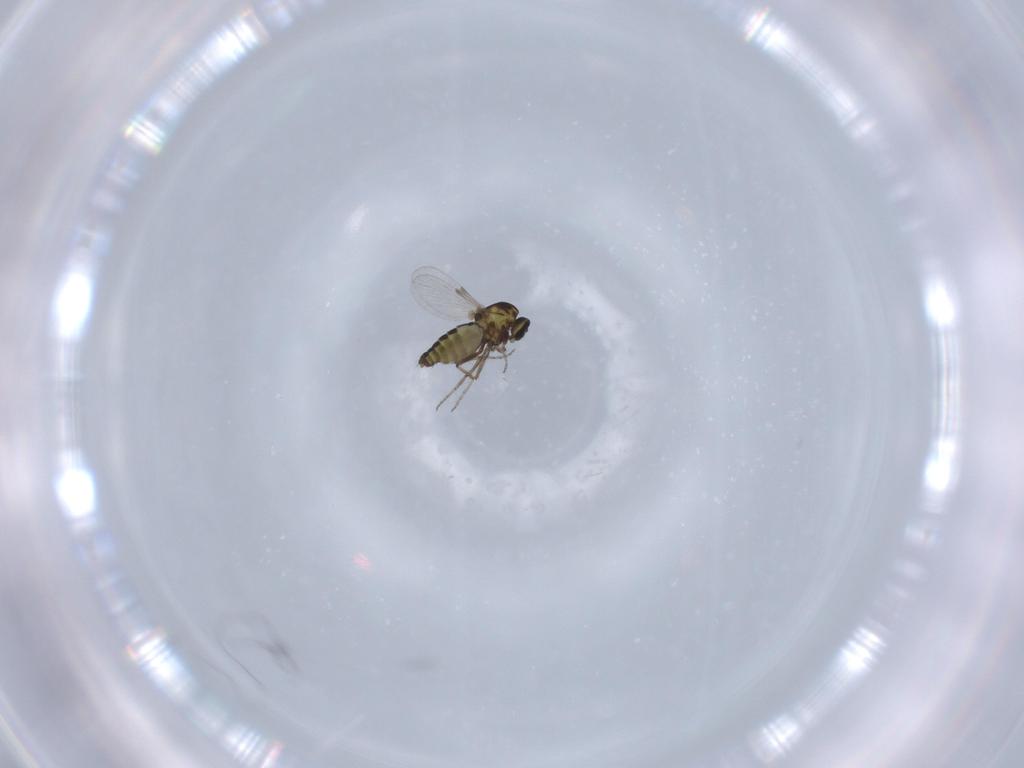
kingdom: Animalia
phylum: Arthropoda
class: Insecta
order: Diptera
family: Ceratopogonidae
